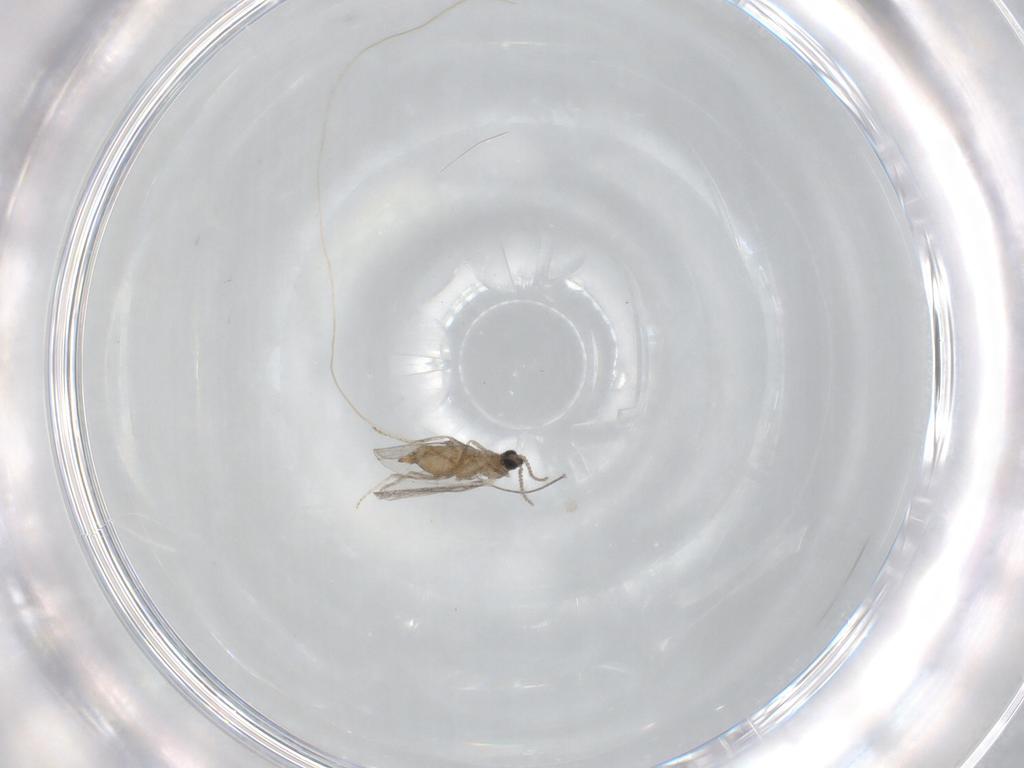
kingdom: Animalia
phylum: Arthropoda
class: Insecta
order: Diptera
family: Cecidomyiidae
